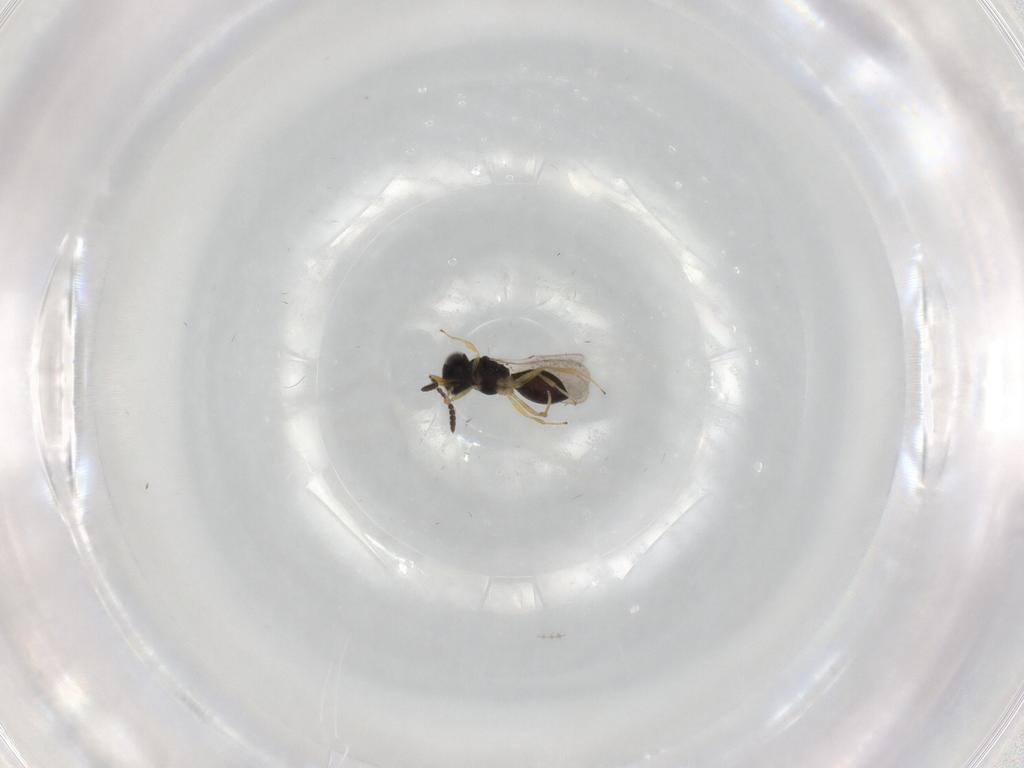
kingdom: Animalia
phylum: Arthropoda
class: Insecta
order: Hymenoptera
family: Scelionidae
